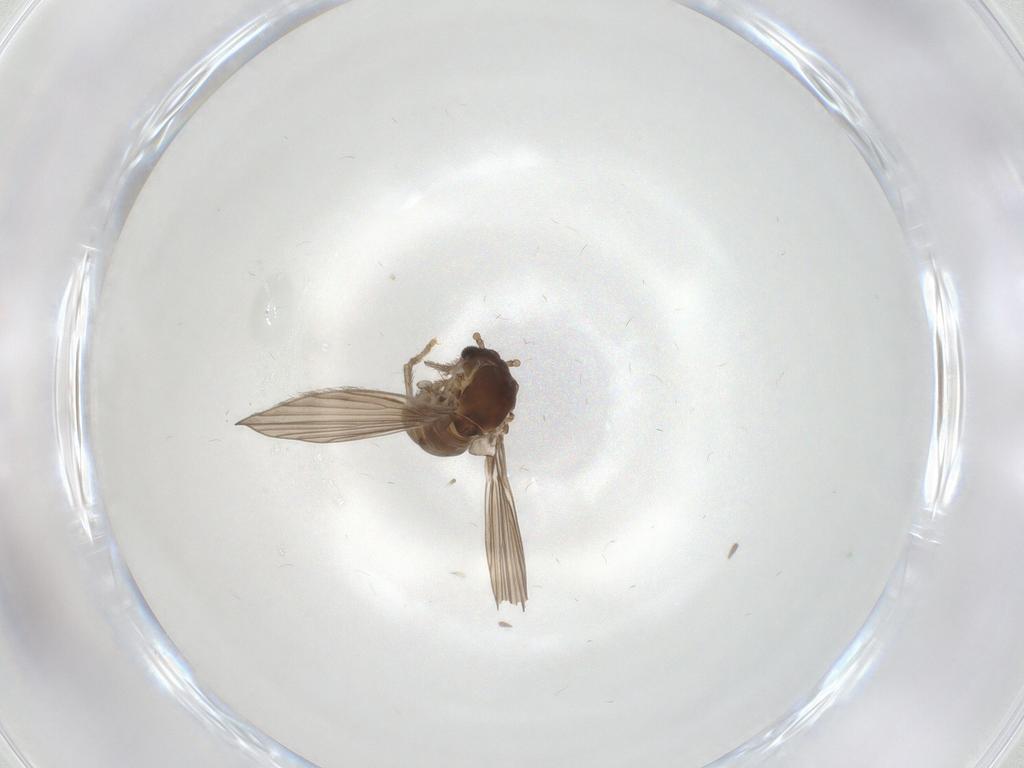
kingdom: Animalia
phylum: Arthropoda
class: Insecta
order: Diptera
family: Psychodidae
